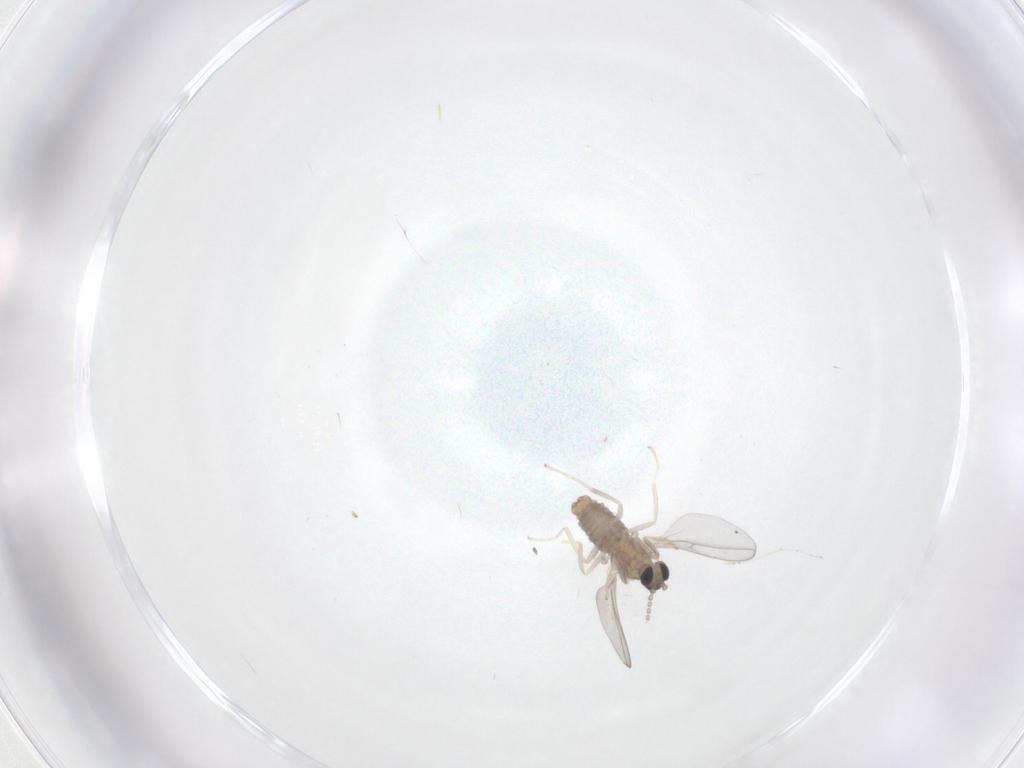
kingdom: Animalia
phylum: Arthropoda
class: Insecta
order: Diptera
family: Cecidomyiidae
